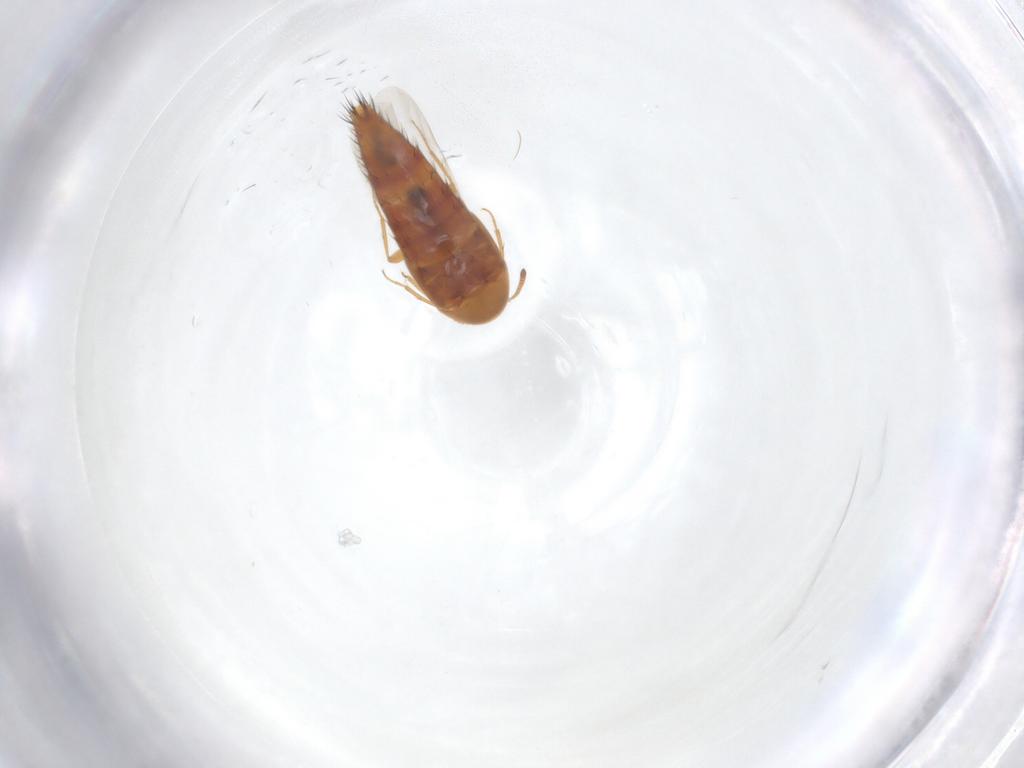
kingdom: Animalia
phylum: Arthropoda
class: Insecta
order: Coleoptera
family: Staphylinidae
